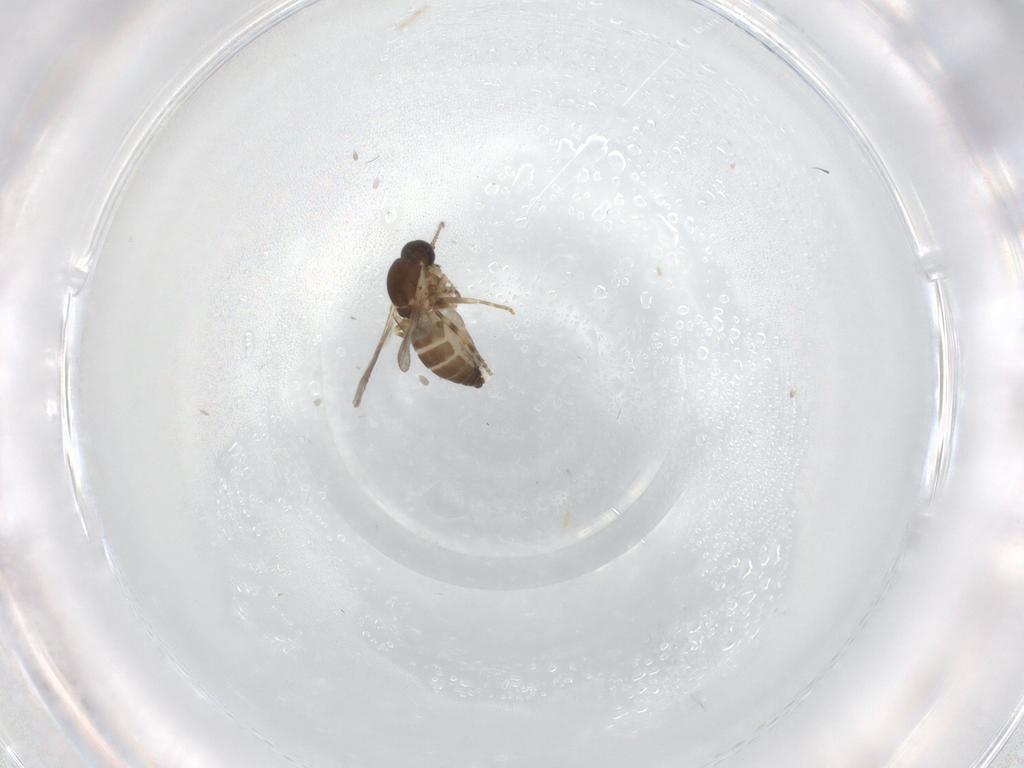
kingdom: Animalia
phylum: Arthropoda
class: Insecta
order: Diptera
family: Ceratopogonidae
